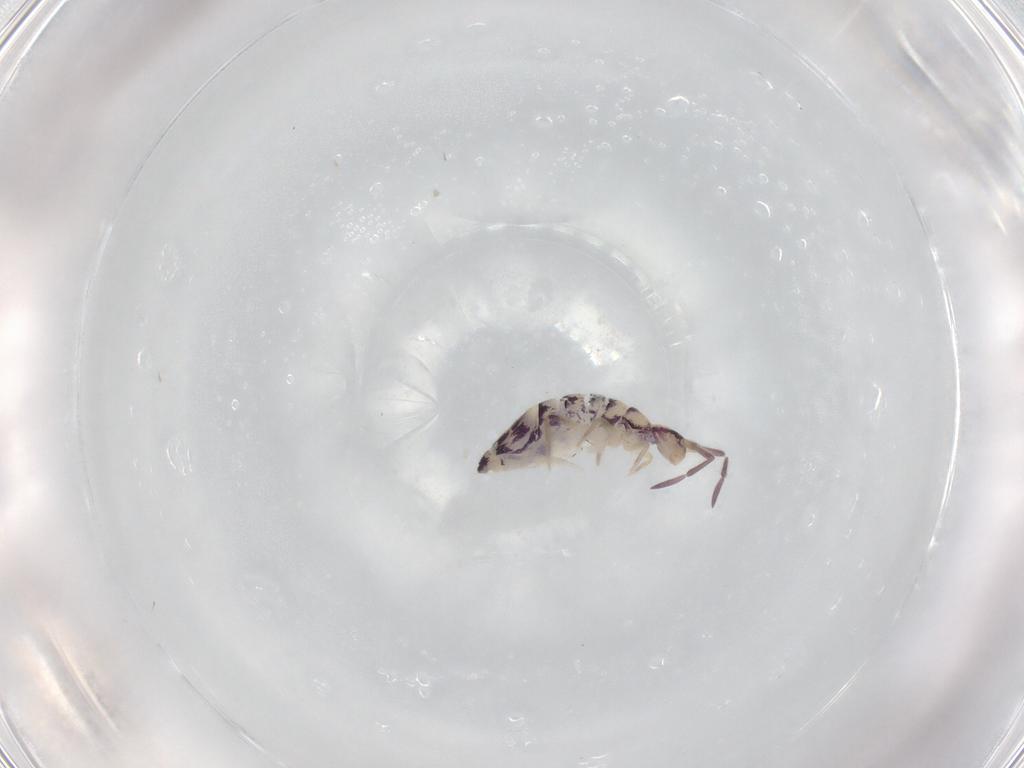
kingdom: Animalia
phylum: Arthropoda
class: Collembola
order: Entomobryomorpha
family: Entomobryidae
